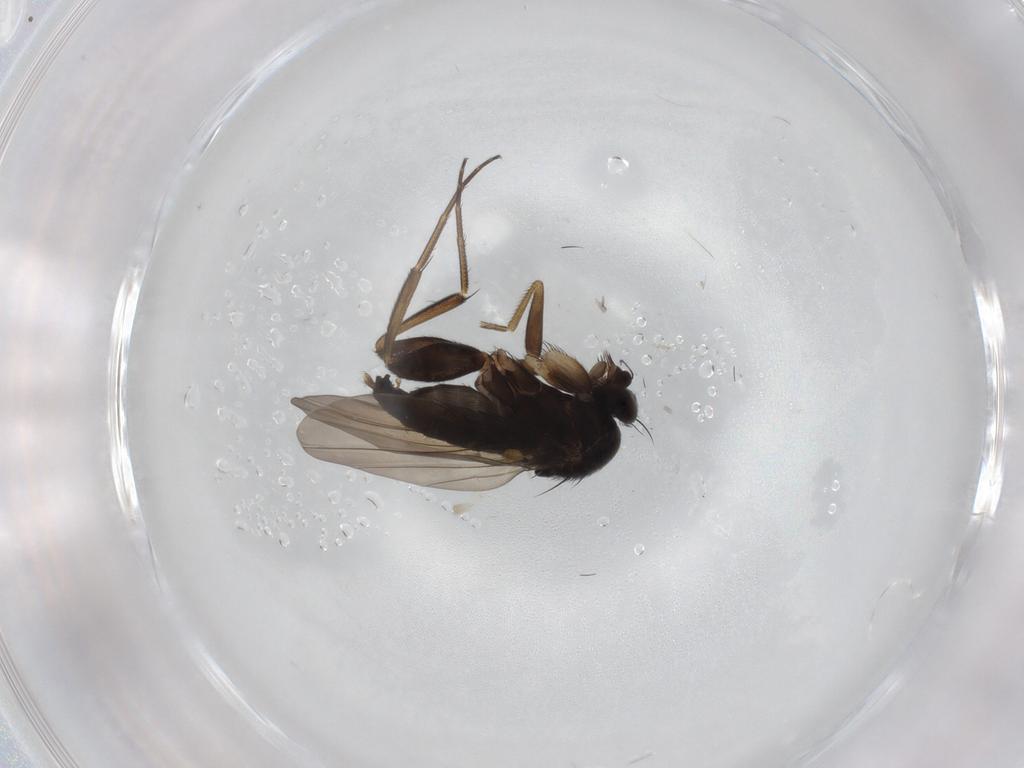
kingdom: Animalia
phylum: Arthropoda
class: Insecta
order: Diptera
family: Phoridae
